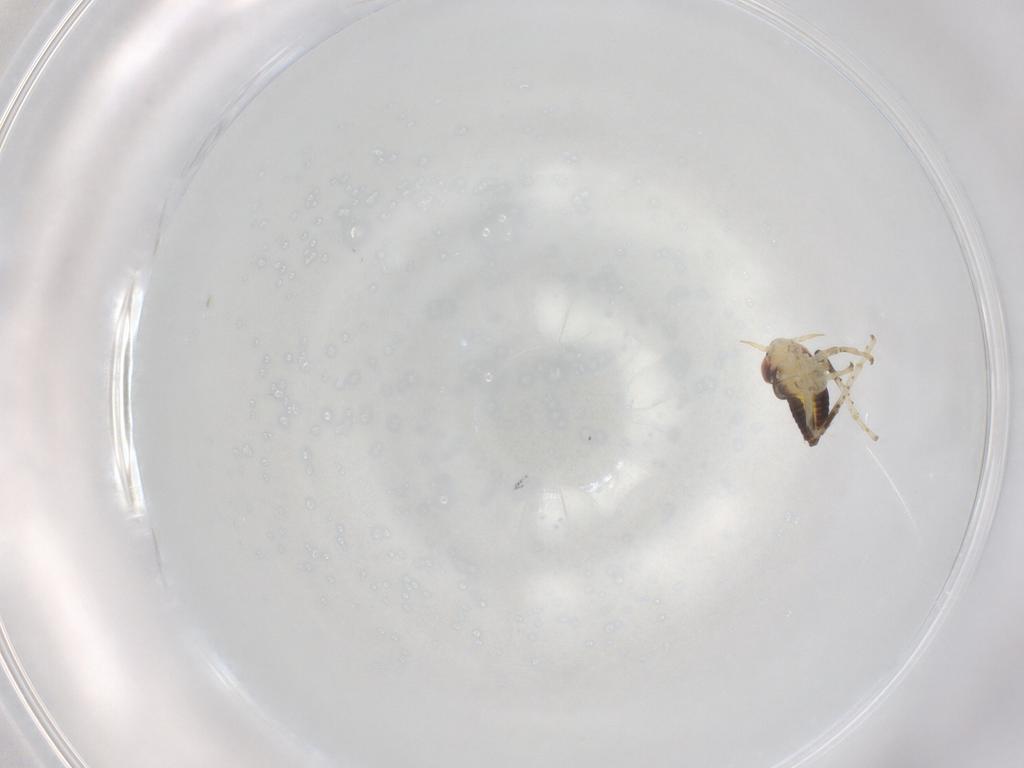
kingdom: Animalia
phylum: Arthropoda
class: Insecta
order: Hemiptera
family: Cicadellidae
